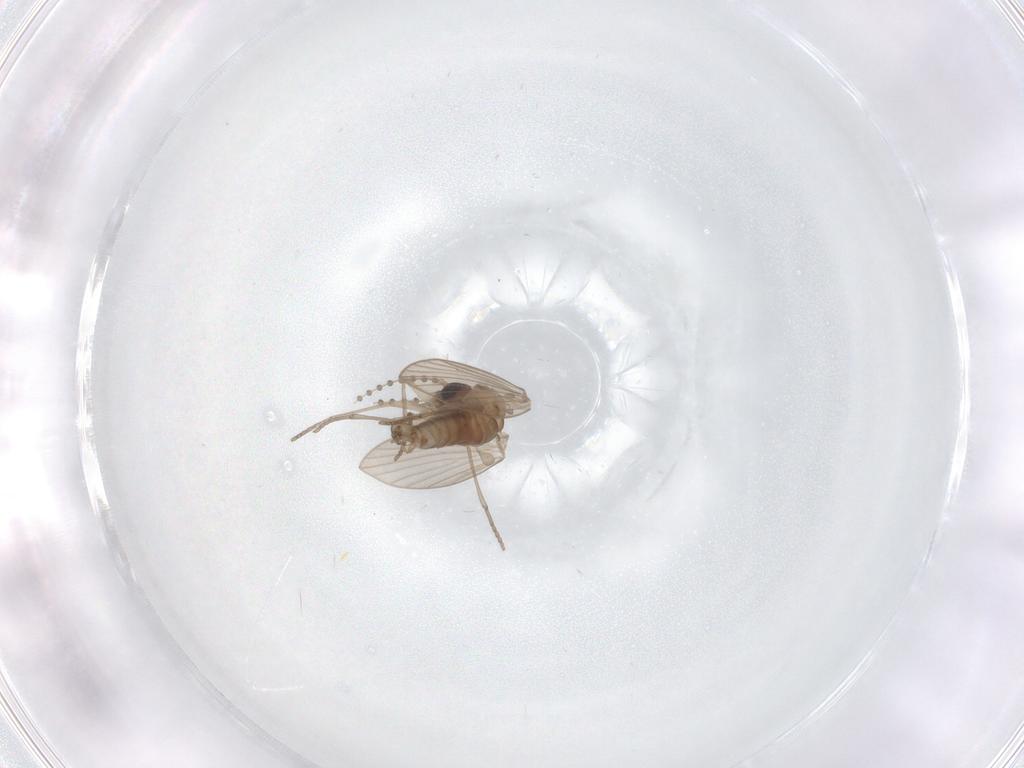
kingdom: Animalia
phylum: Arthropoda
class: Insecta
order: Diptera
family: Psychodidae
